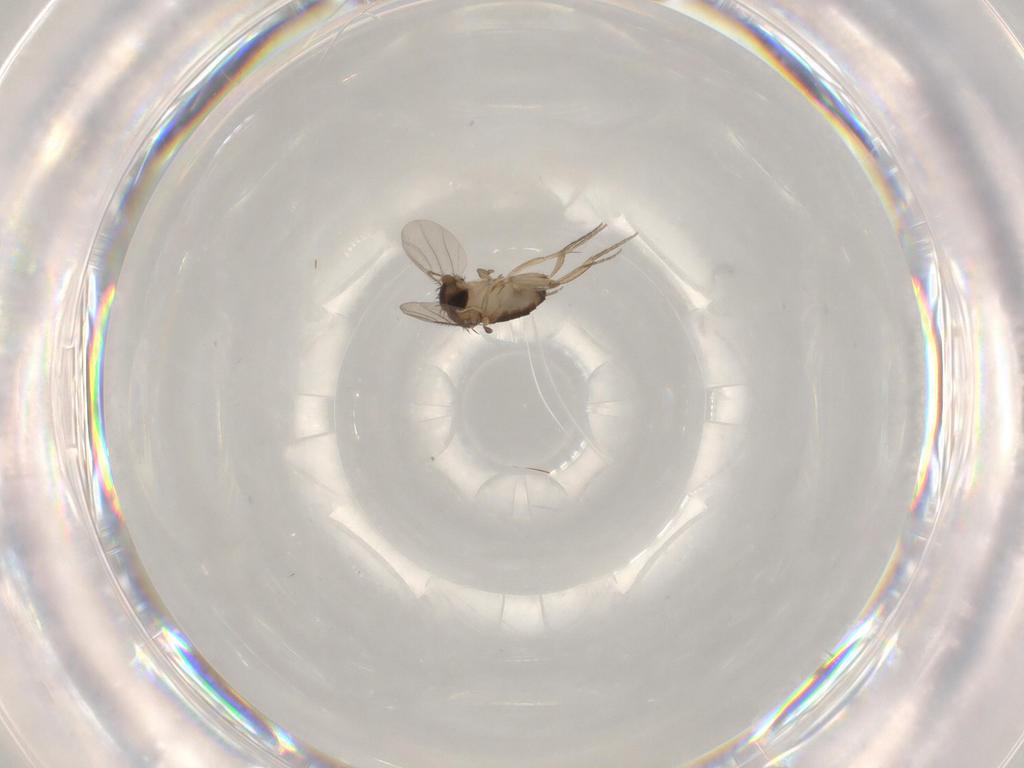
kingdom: Animalia
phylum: Arthropoda
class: Insecta
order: Diptera
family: Phoridae
